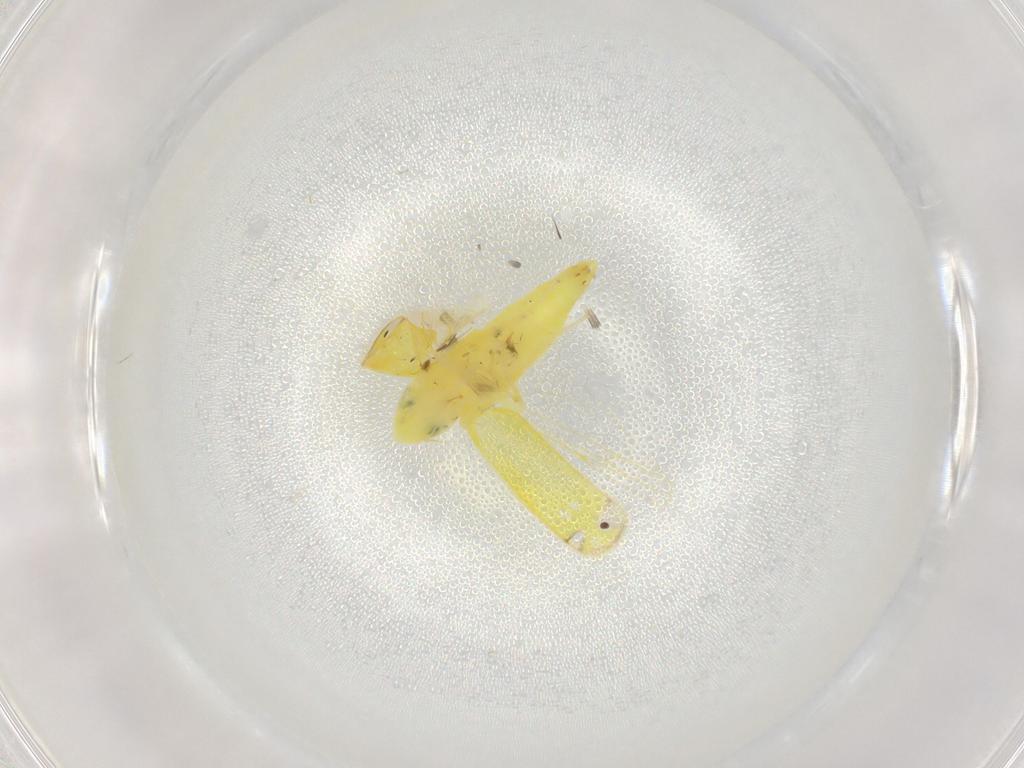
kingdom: Animalia
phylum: Arthropoda
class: Insecta
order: Hemiptera
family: Cicadellidae
